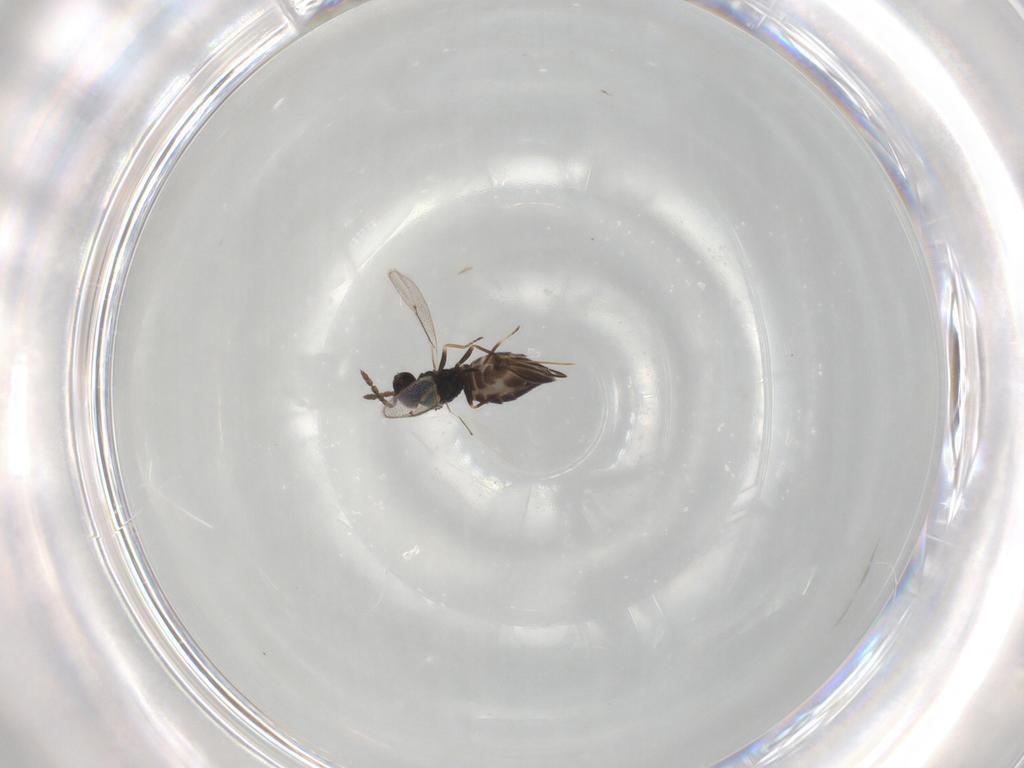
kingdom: Animalia
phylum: Arthropoda
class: Insecta
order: Hymenoptera
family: Eulophidae
